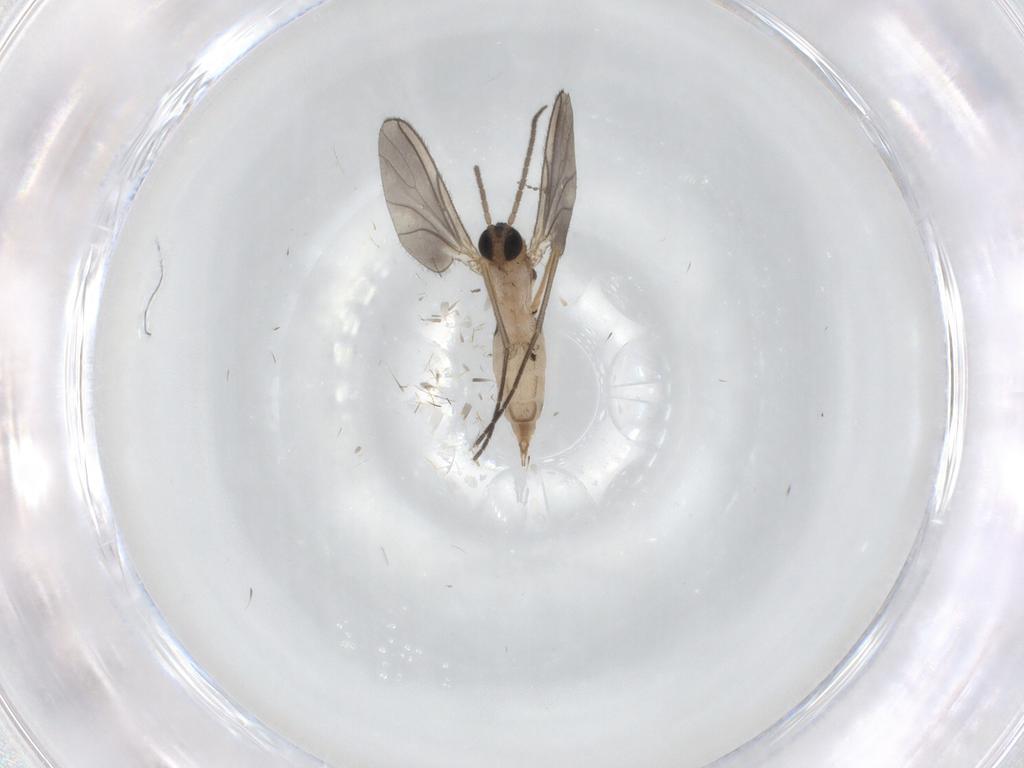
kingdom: Animalia
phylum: Arthropoda
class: Insecta
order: Diptera
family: Sciaridae
